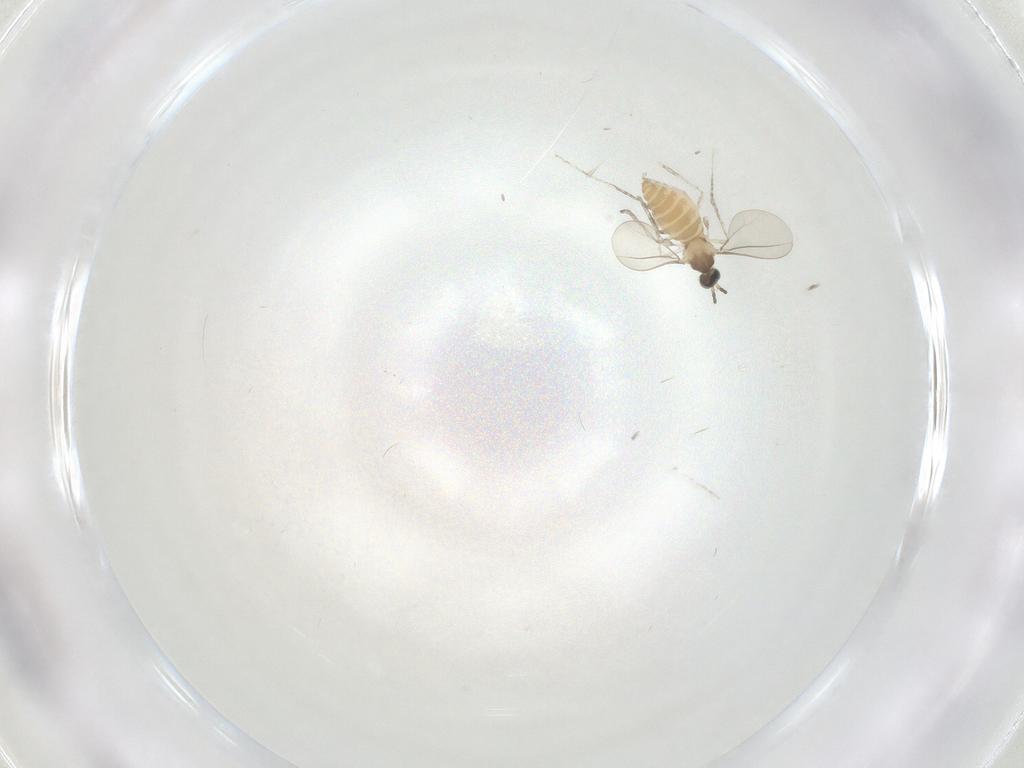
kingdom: Animalia
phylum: Arthropoda
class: Insecta
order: Diptera
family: Cecidomyiidae
